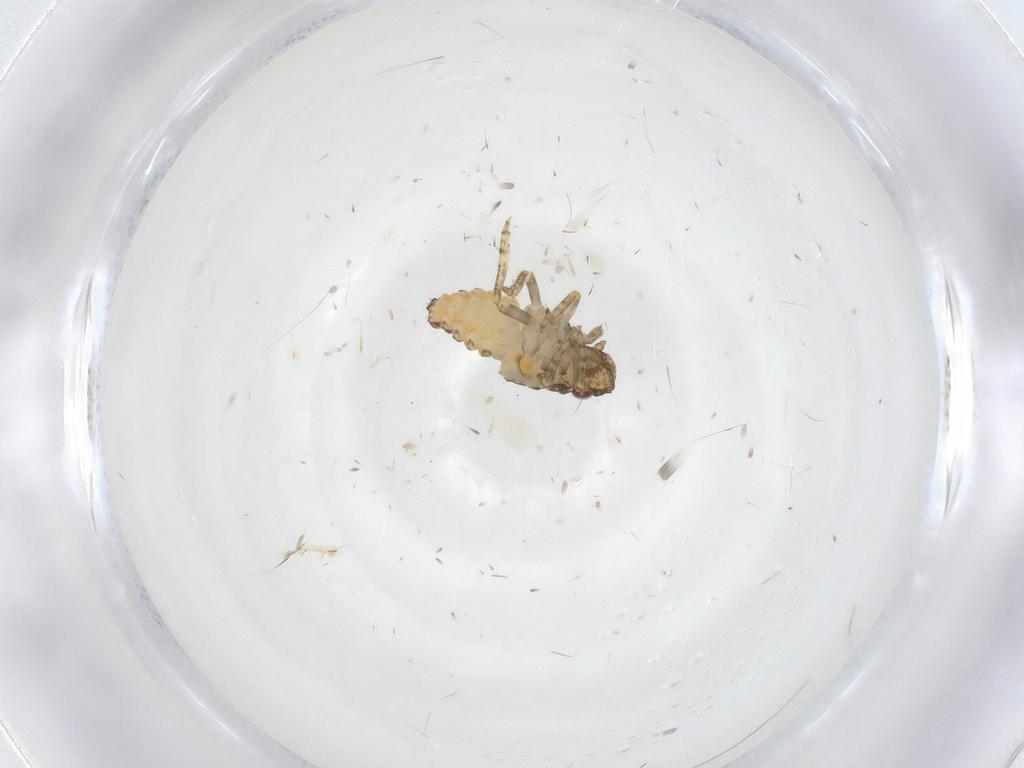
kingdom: Animalia
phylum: Arthropoda
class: Insecta
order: Hemiptera
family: Nogodinidae
